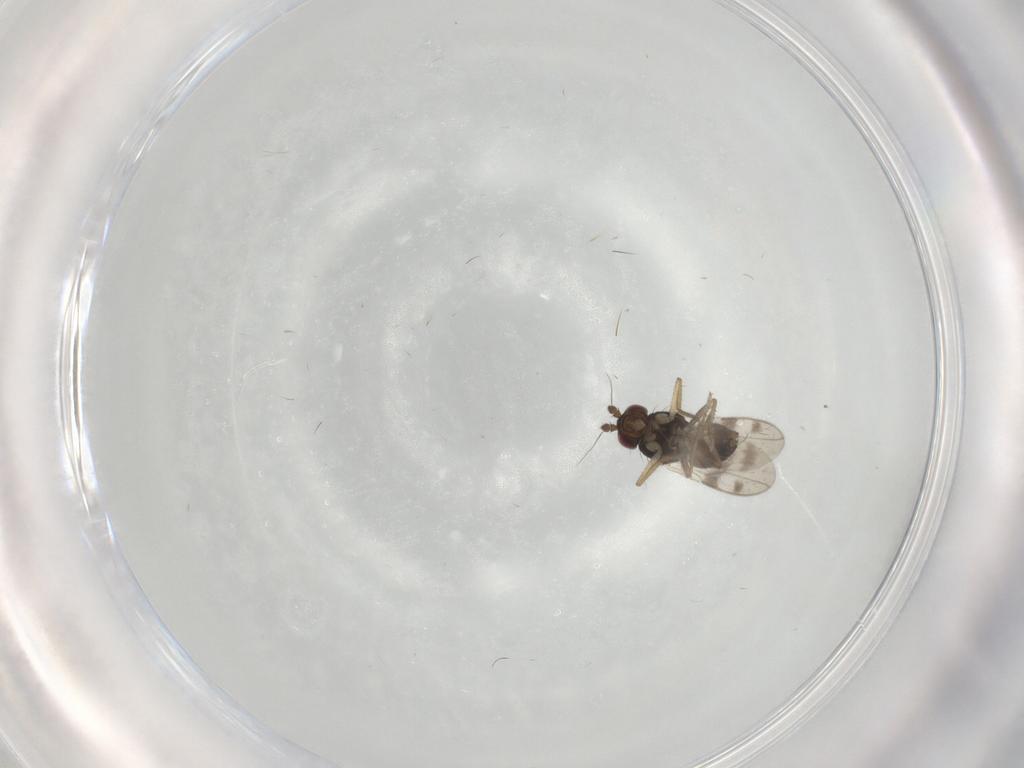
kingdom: Animalia
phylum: Arthropoda
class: Insecta
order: Diptera
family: Sphaeroceridae
